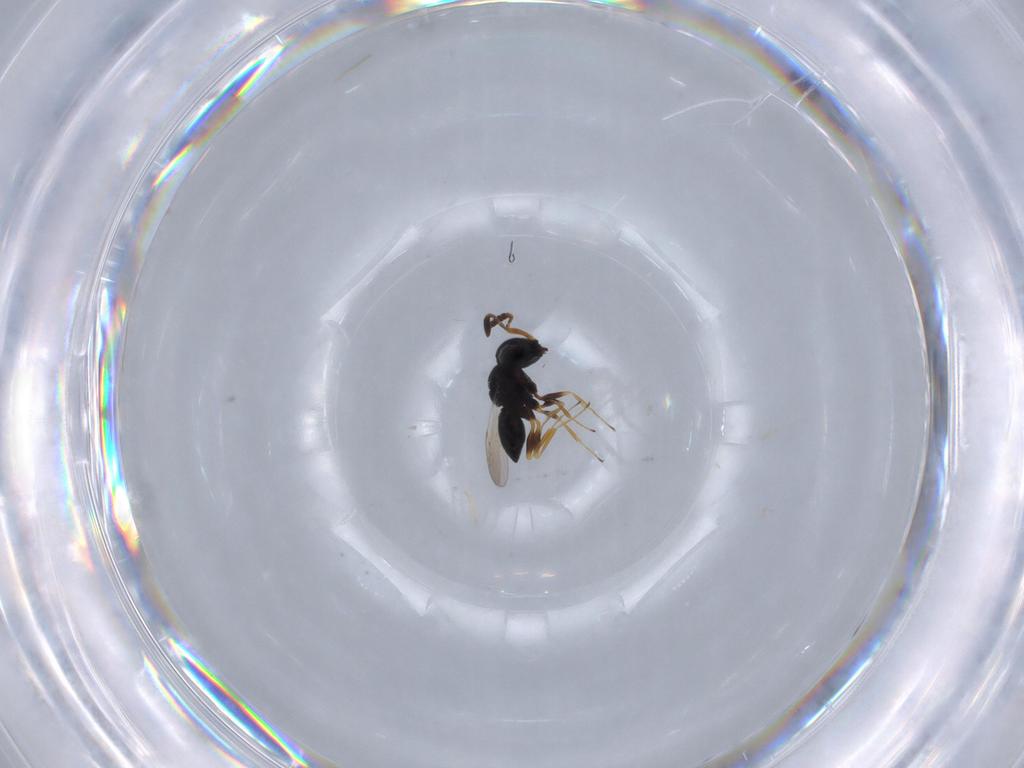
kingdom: Animalia
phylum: Arthropoda
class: Insecta
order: Hymenoptera
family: Scelionidae
